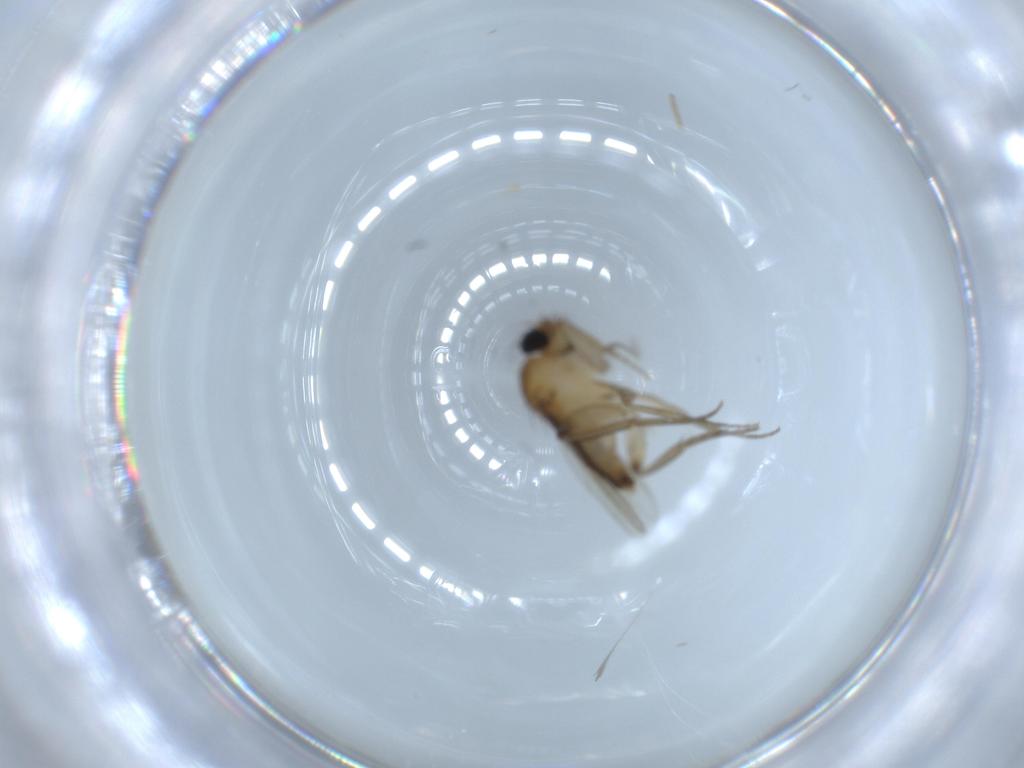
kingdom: Animalia
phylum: Arthropoda
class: Insecta
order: Diptera
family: Phoridae
